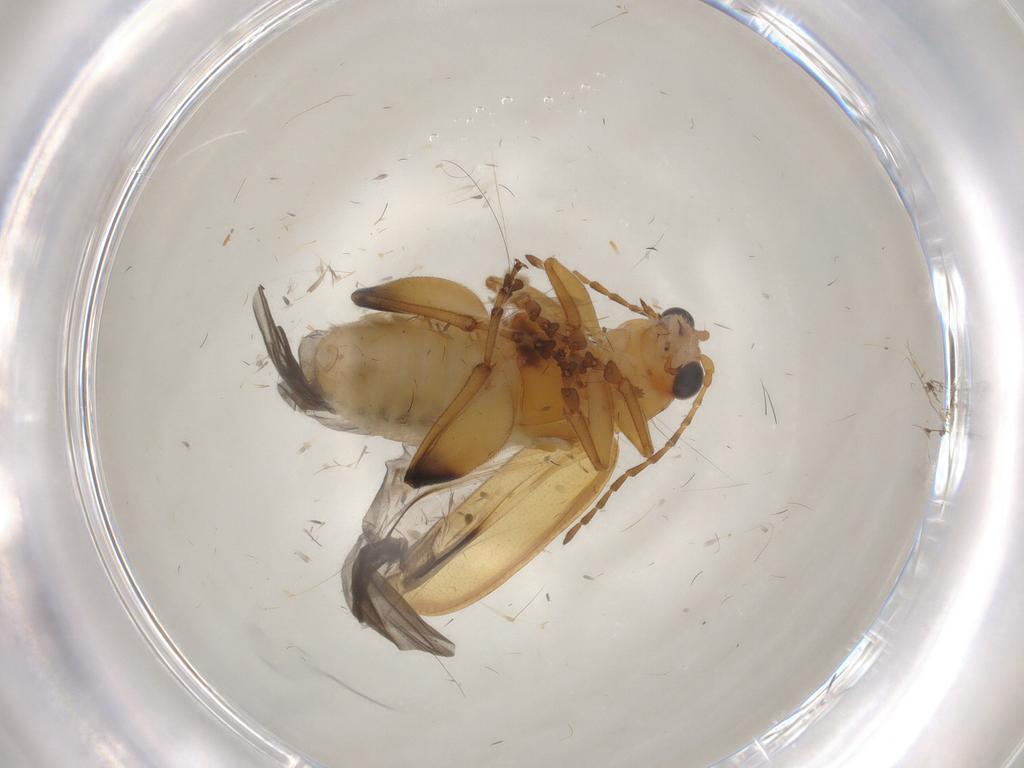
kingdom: Animalia
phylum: Arthropoda
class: Insecta
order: Coleoptera
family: Chrysomelidae
